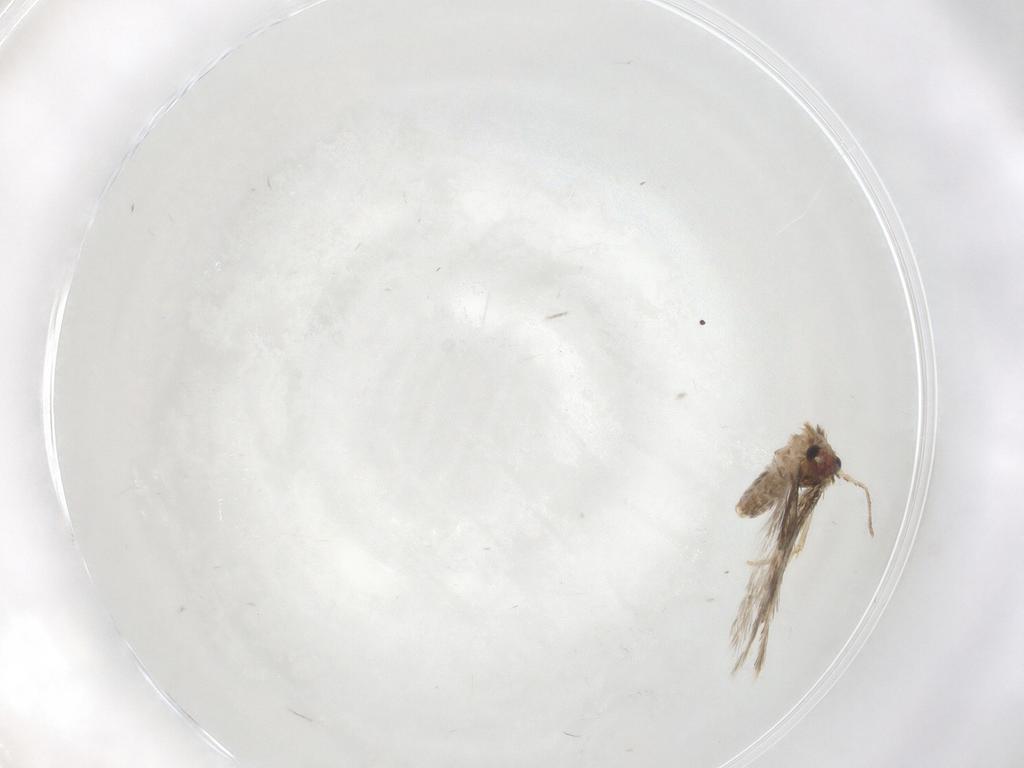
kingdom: Animalia
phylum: Arthropoda
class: Insecta
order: Lepidoptera
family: Nepticulidae
